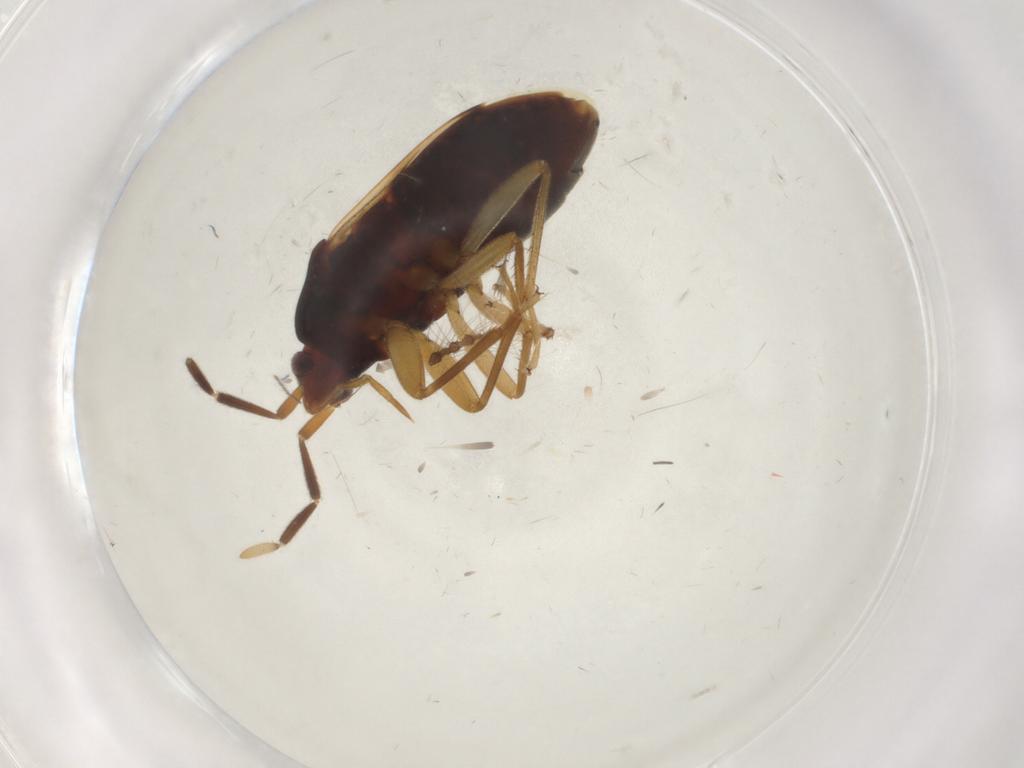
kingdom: Animalia
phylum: Arthropoda
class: Insecta
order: Hemiptera
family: Rhyparochromidae
